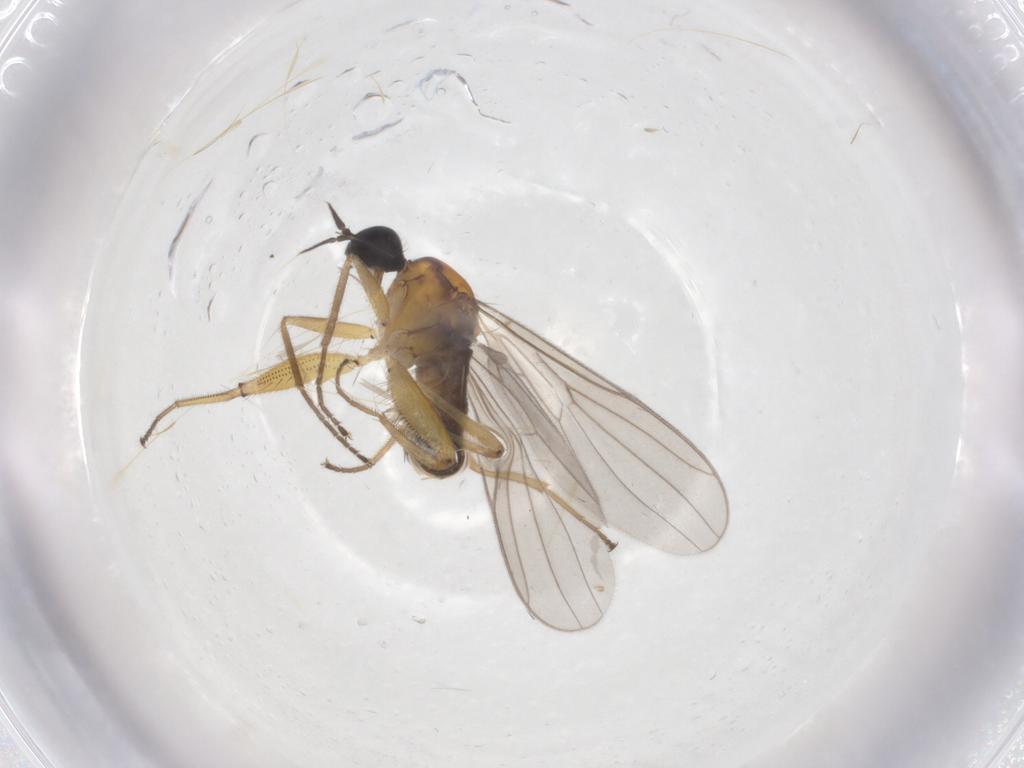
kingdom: Animalia
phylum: Arthropoda
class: Insecta
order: Diptera
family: Hybotidae
